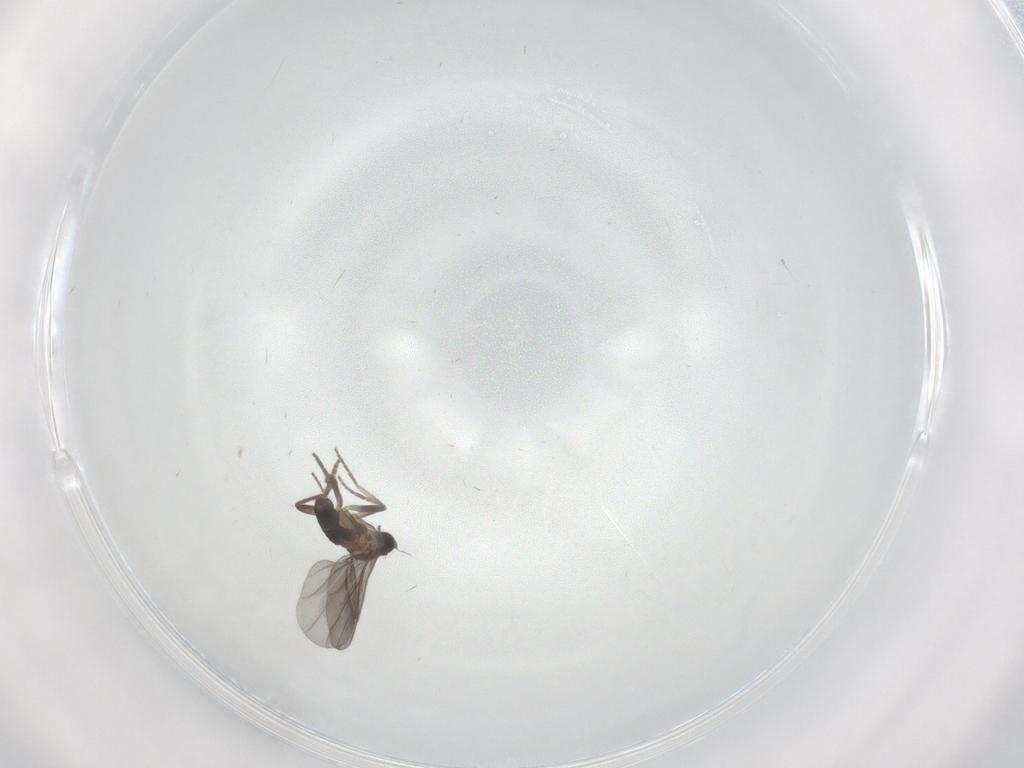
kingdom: Animalia
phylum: Arthropoda
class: Insecta
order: Diptera
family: Phoridae
